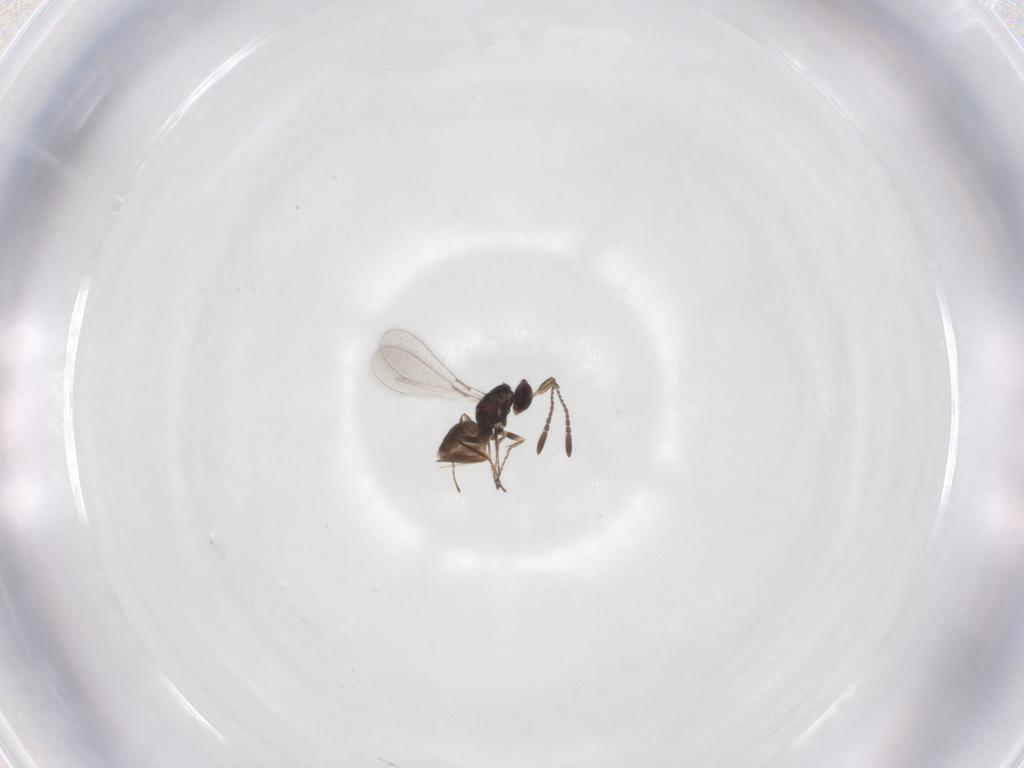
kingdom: Animalia
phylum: Arthropoda
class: Insecta
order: Hymenoptera
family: Mymaridae
